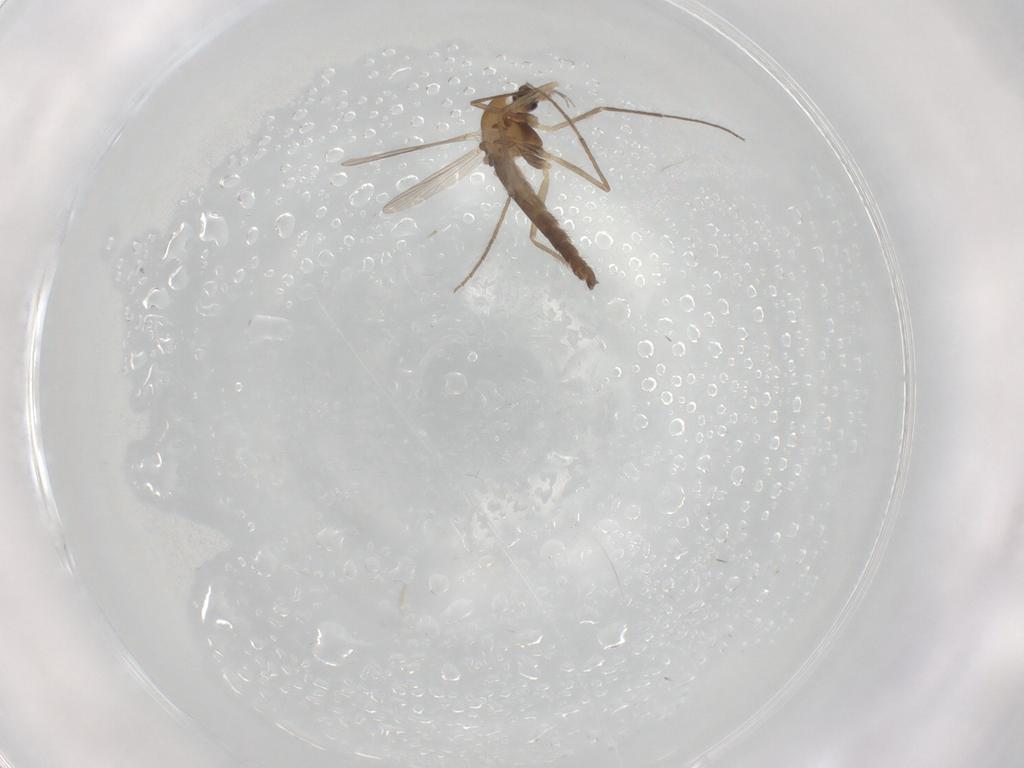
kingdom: Animalia
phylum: Arthropoda
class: Insecta
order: Diptera
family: Chironomidae
